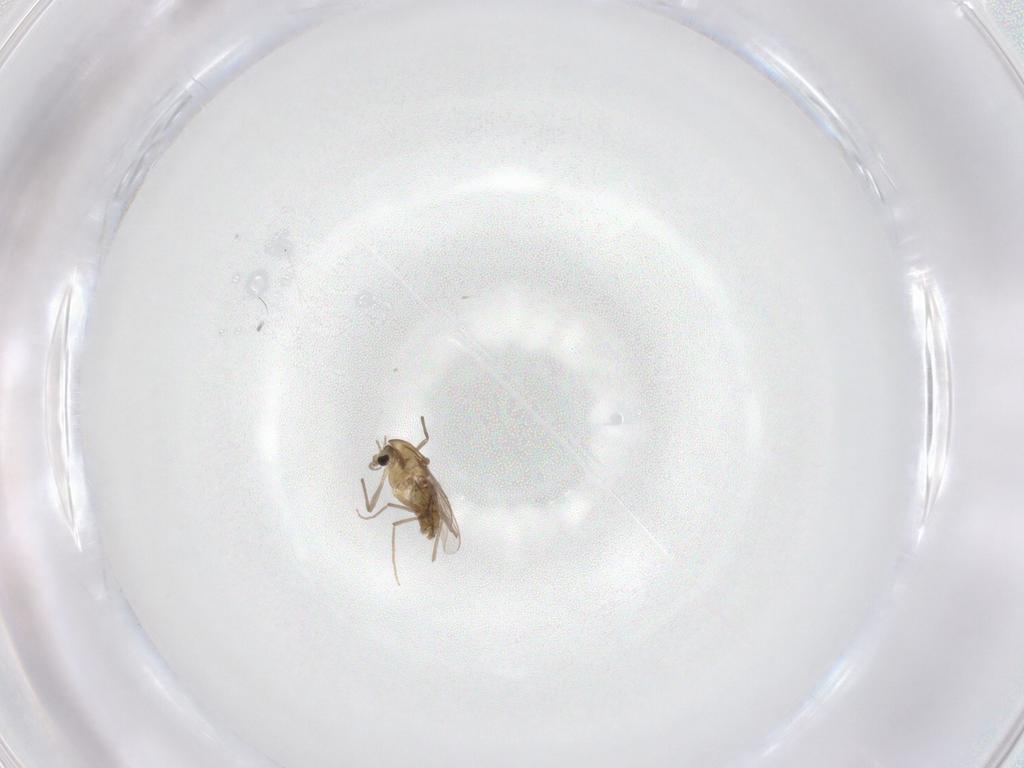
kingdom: Animalia
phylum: Arthropoda
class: Insecta
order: Diptera
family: Chironomidae
